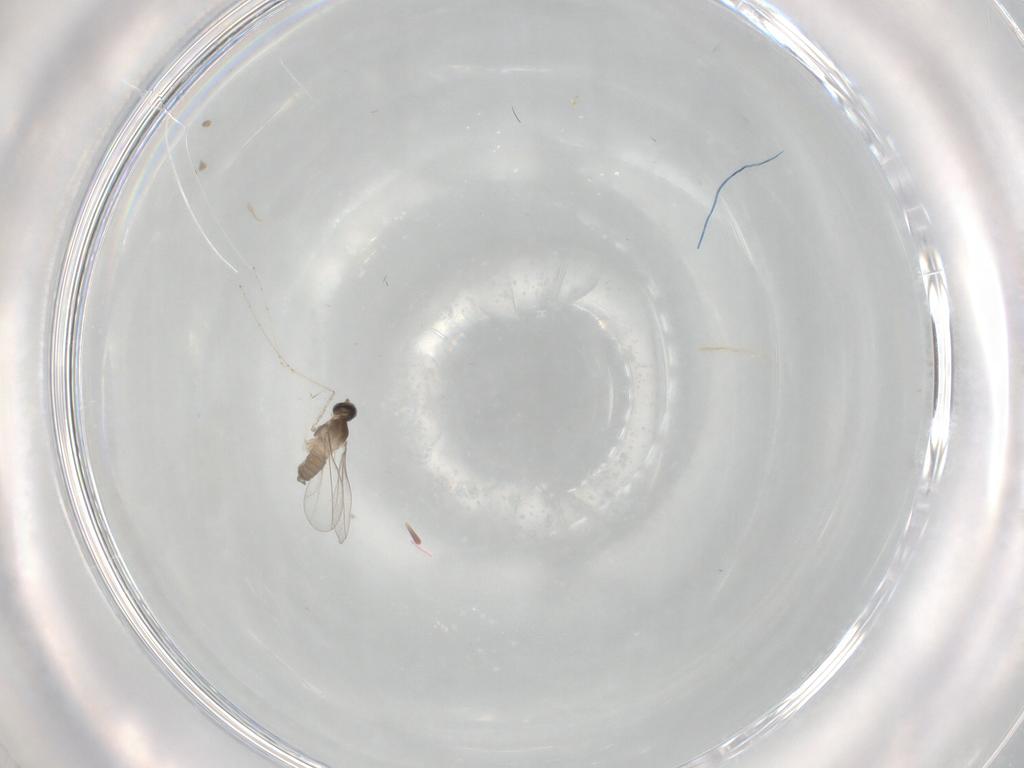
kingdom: Animalia
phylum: Arthropoda
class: Insecta
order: Diptera
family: Cecidomyiidae
